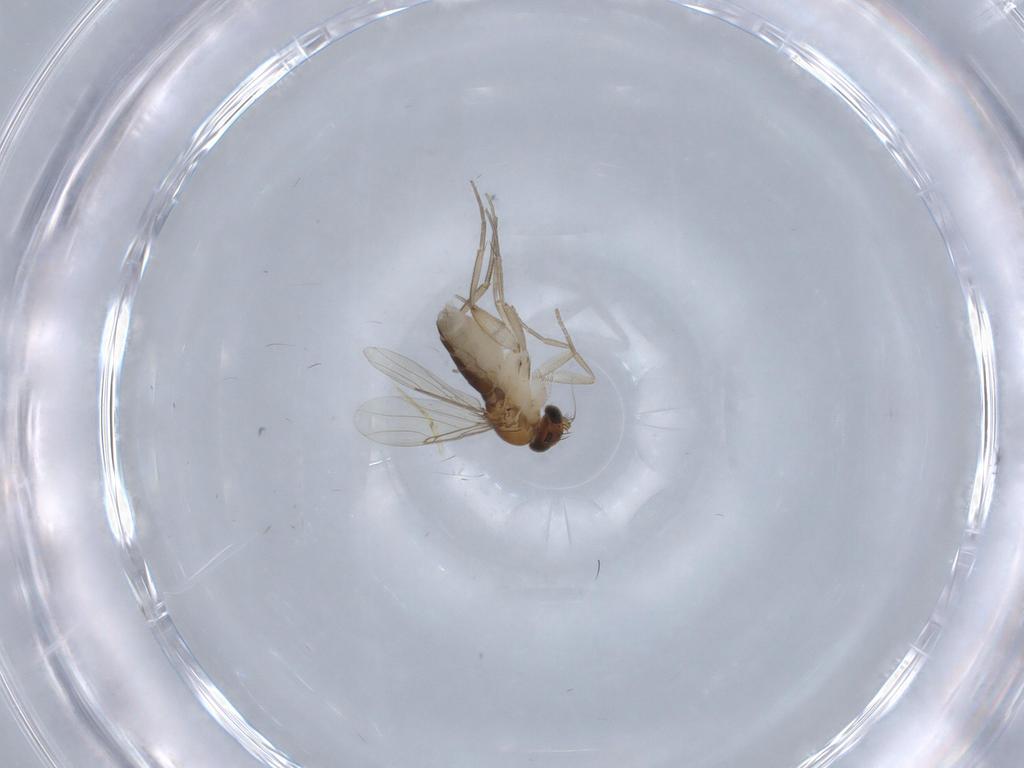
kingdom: Animalia
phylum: Arthropoda
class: Insecta
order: Diptera
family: Phoridae
